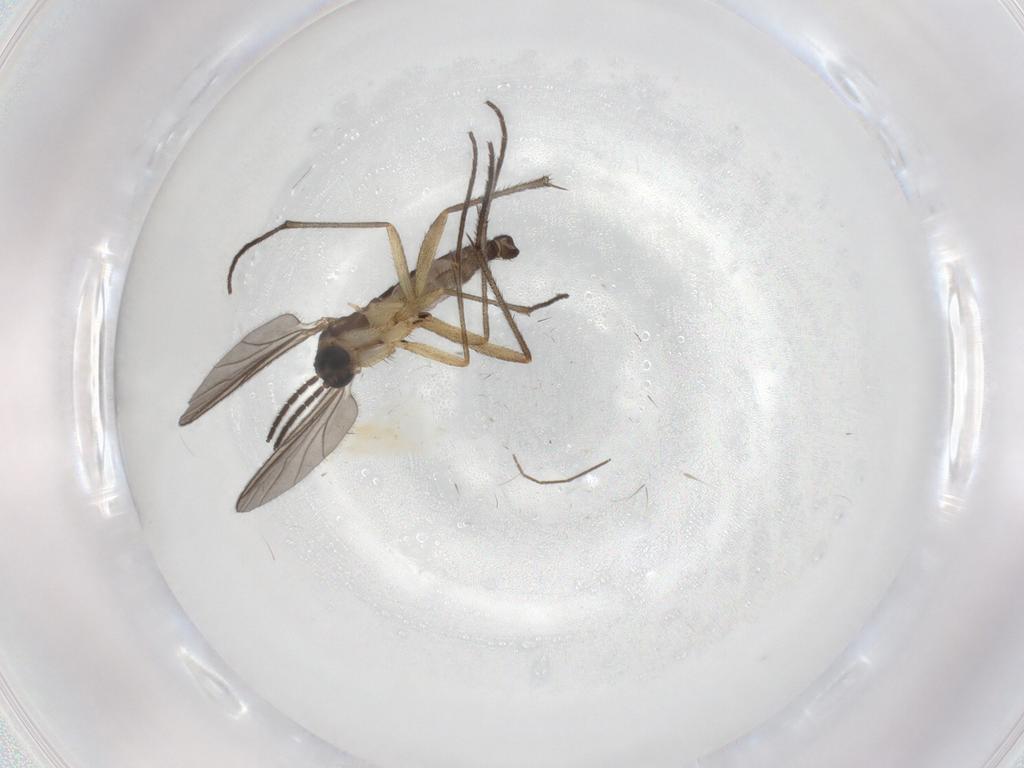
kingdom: Animalia
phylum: Arthropoda
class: Insecta
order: Diptera
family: Sciaridae
